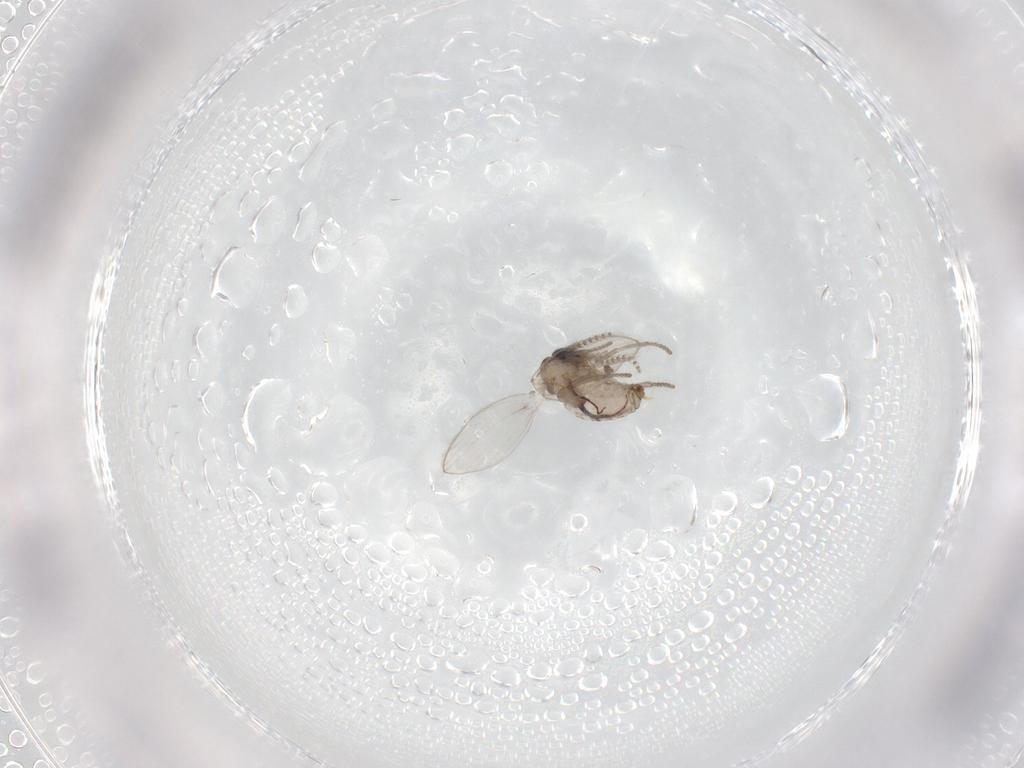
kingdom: Animalia
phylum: Arthropoda
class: Insecta
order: Diptera
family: Psychodidae
